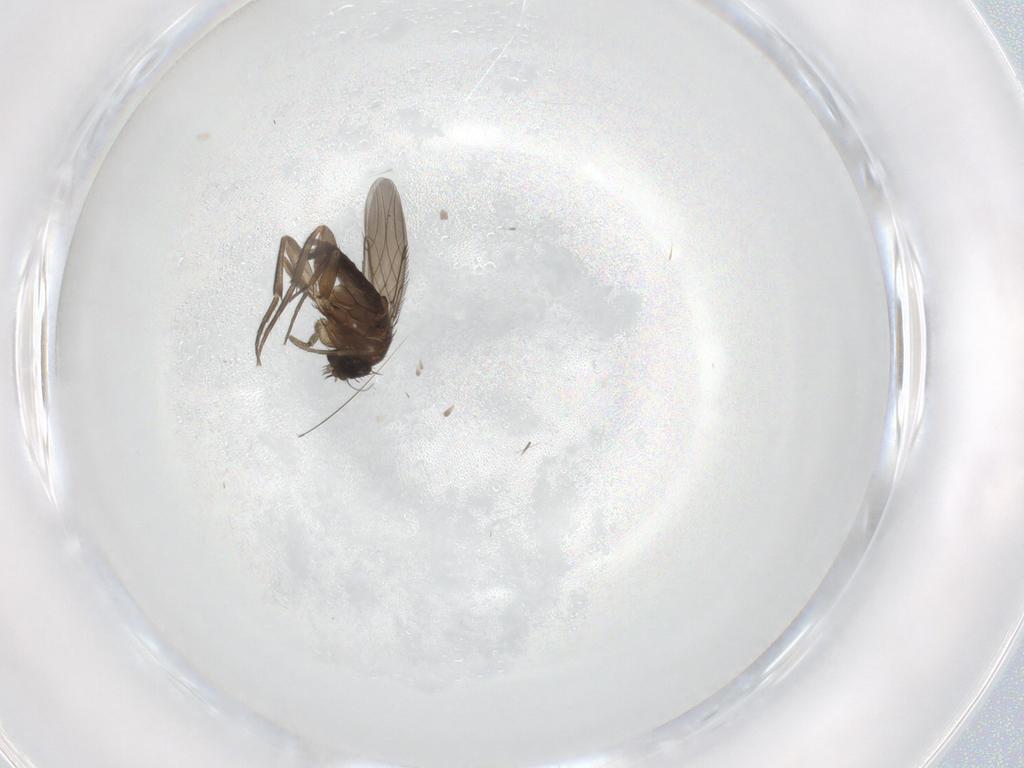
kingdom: Animalia
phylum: Arthropoda
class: Insecta
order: Diptera
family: Phoridae
